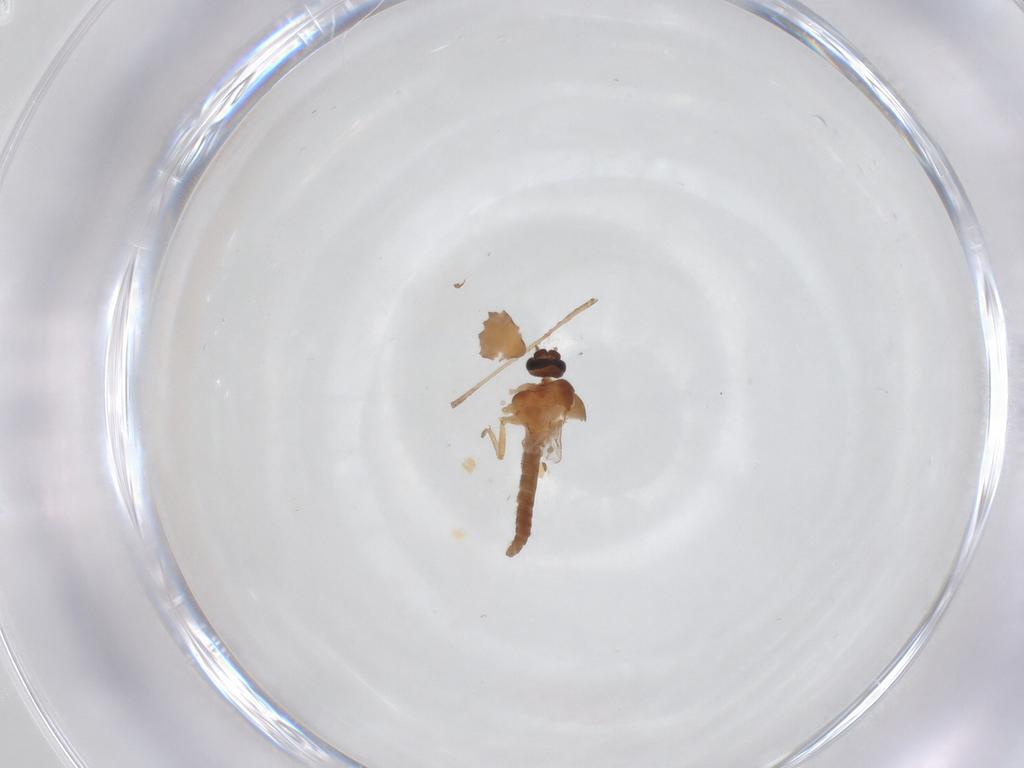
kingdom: Animalia
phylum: Arthropoda
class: Insecta
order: Diptera
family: Ceratopogonidae
